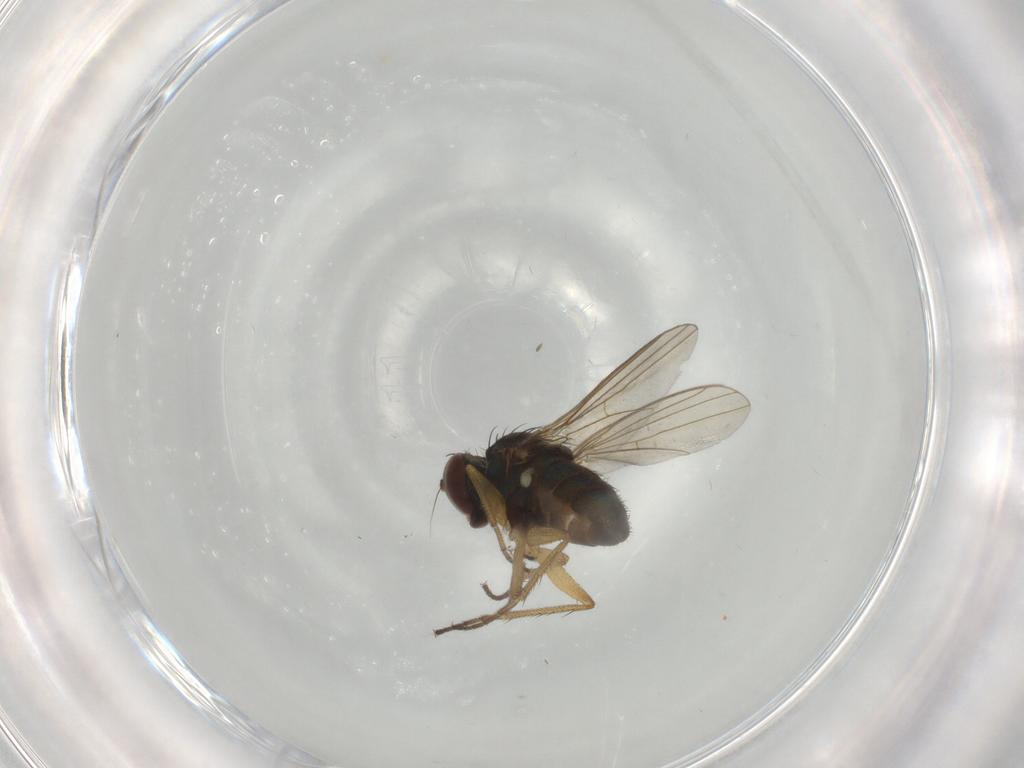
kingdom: Animalia
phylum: Arthropoda
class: Insecta
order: Diptera
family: Dolichopodidae
